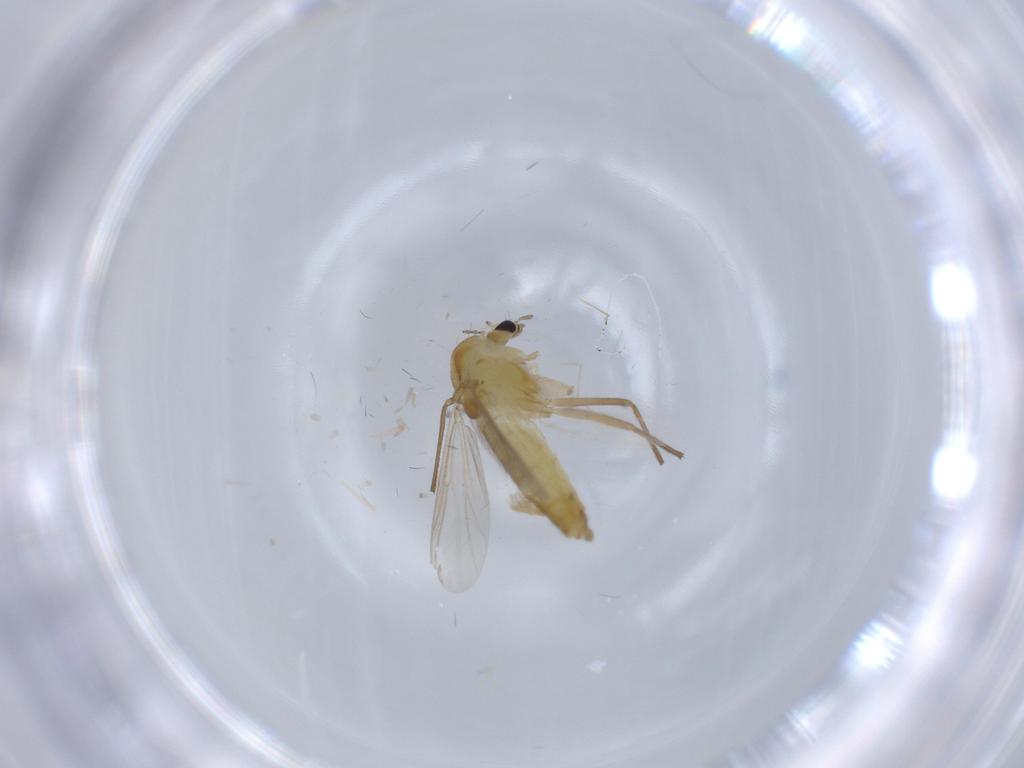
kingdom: Animalia
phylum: Arthropoda
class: Insecta
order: Diptera
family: Chironomidae
